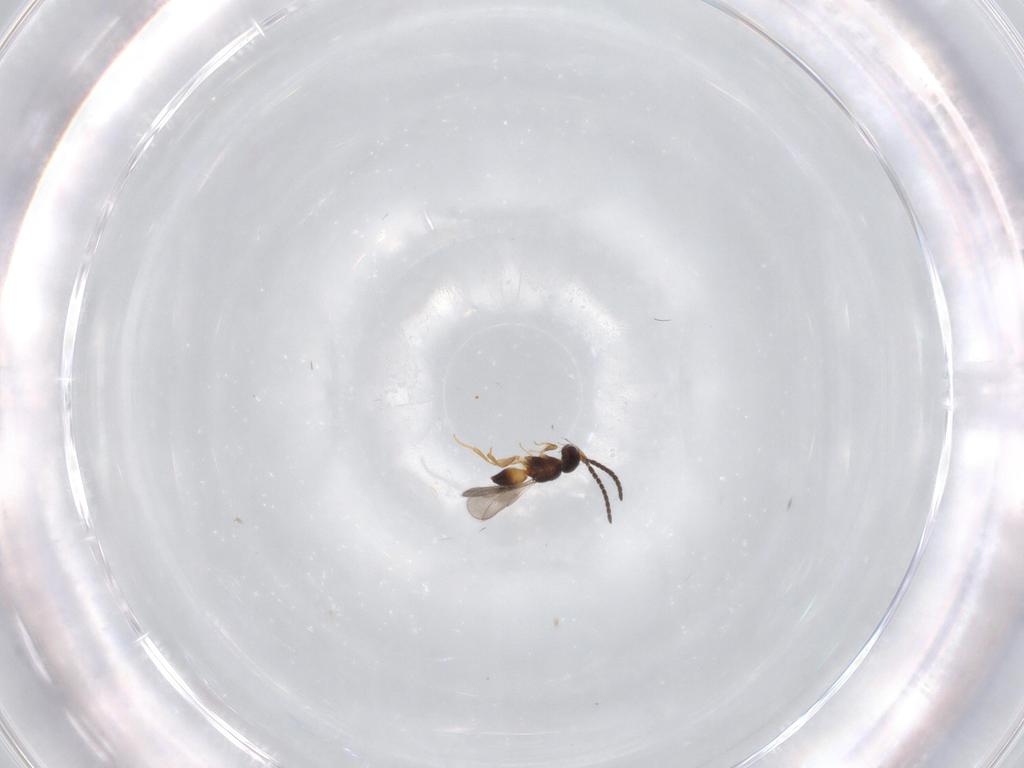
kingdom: Animalia
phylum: Arthropoda
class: Insecta
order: Hymenoptera
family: Ceraphronidae
